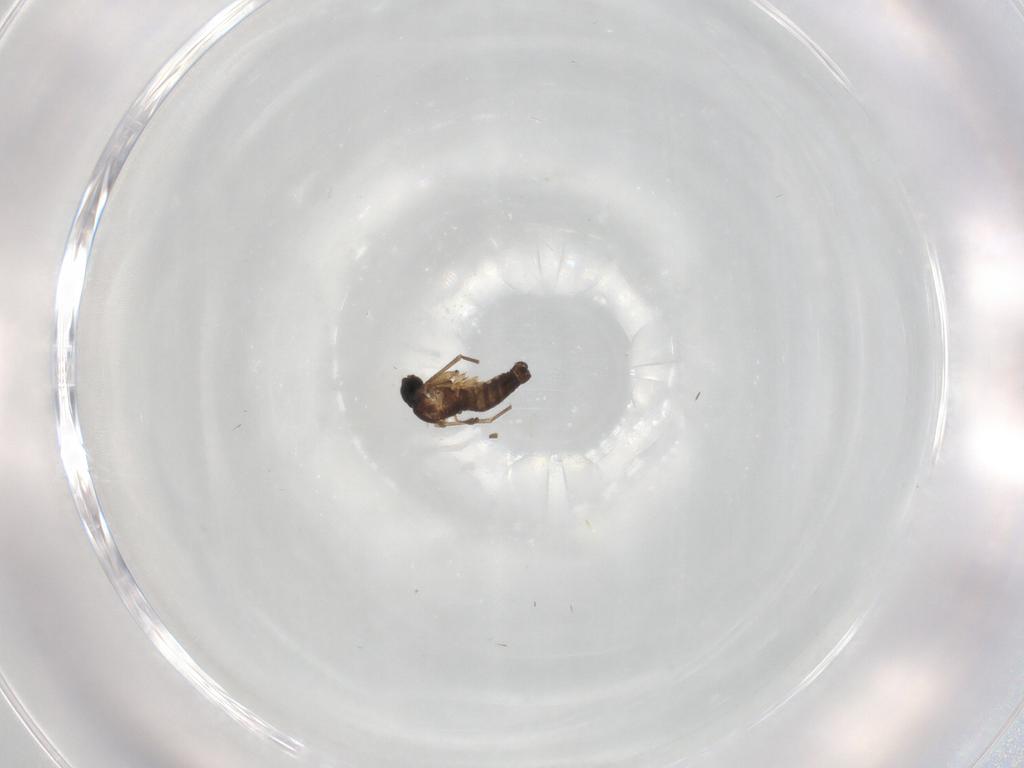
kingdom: Animalia
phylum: Arthropoda
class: Insecta
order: Diptera
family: Sciaridae
